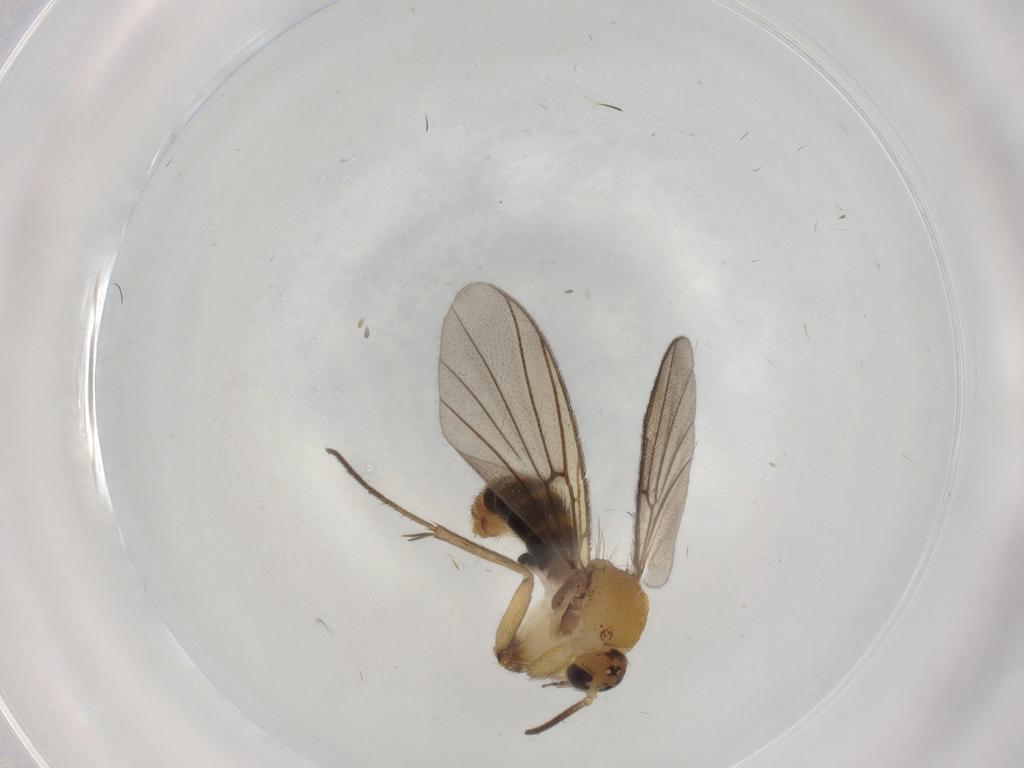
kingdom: Animalia
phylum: Arthropoda
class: Insecta
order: Diptera
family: Mycetophilidae
